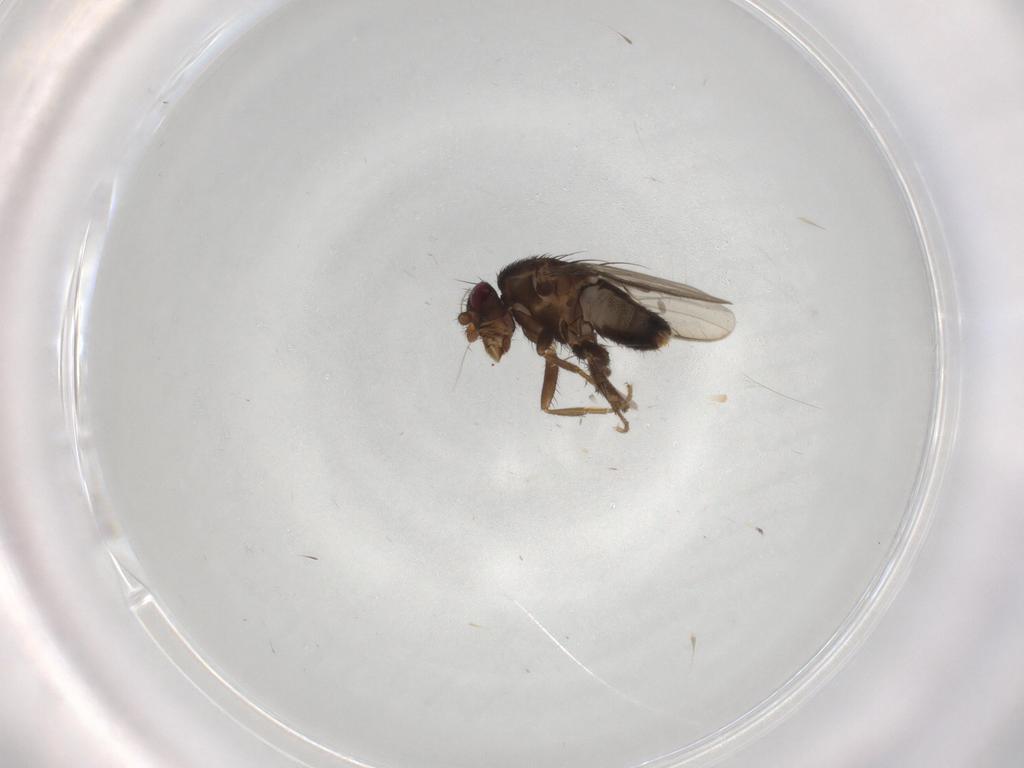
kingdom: Animalia
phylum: Arthropoda
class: Insecta
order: Diptera
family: Sphaeroceridae
